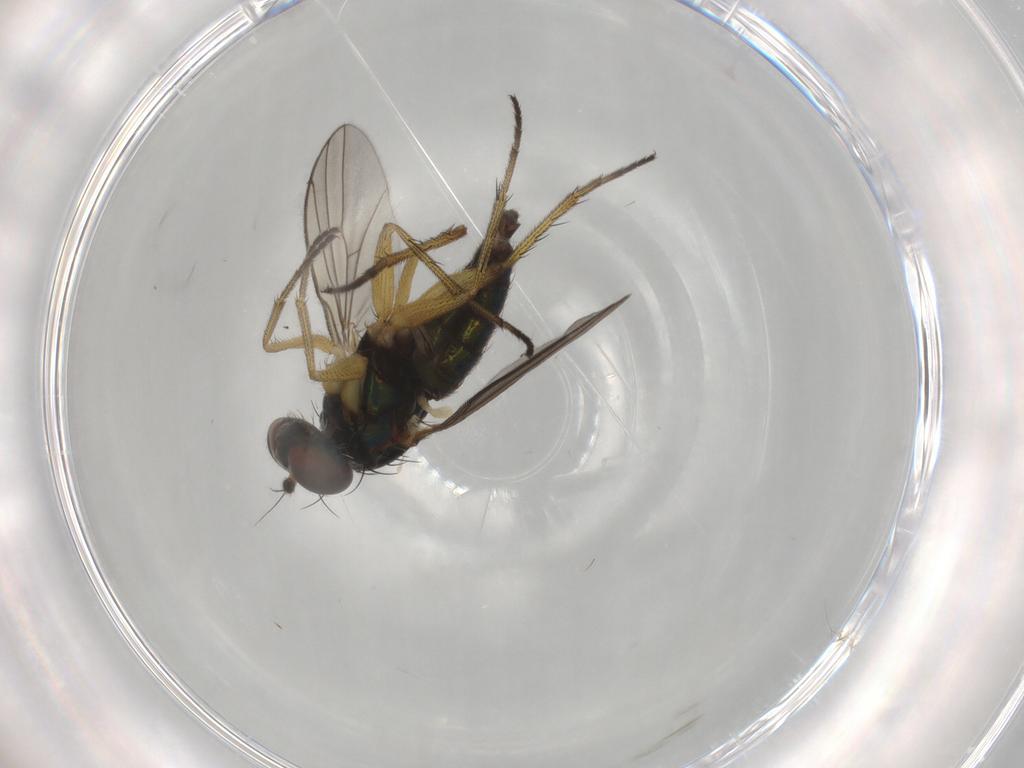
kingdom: Animalia
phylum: Arthropoda
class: Insecta
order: Diptera
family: Dolichopodidae
